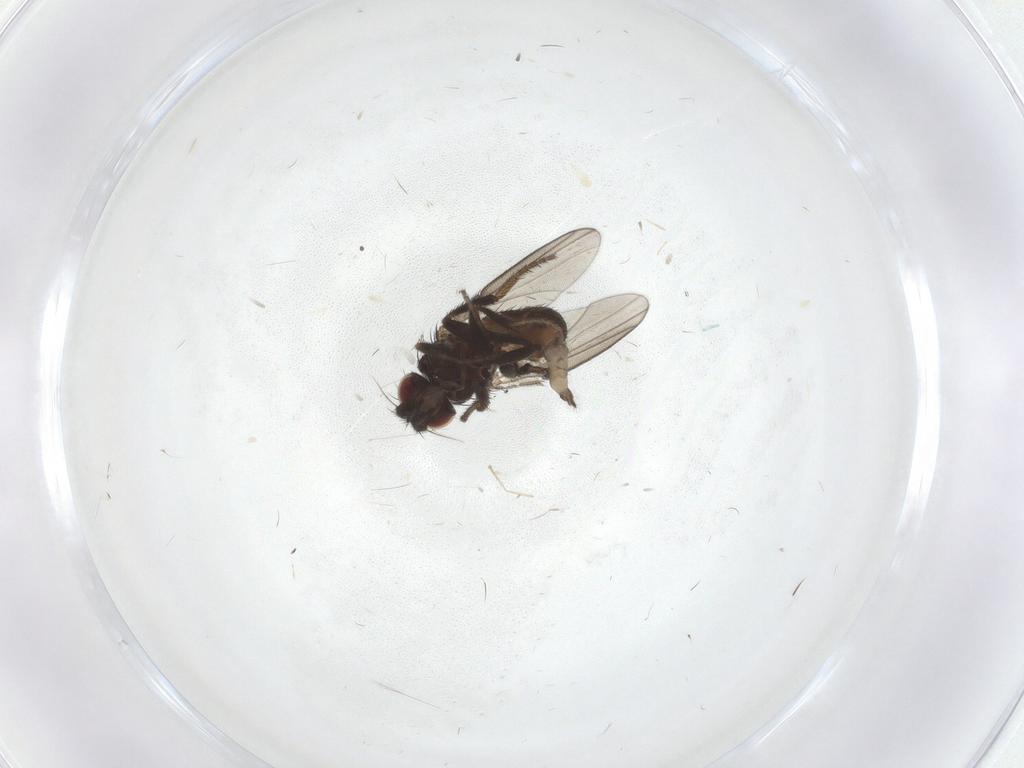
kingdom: Animalia
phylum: Arthropoda
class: Insecta
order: Diptera
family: Milichiidae
